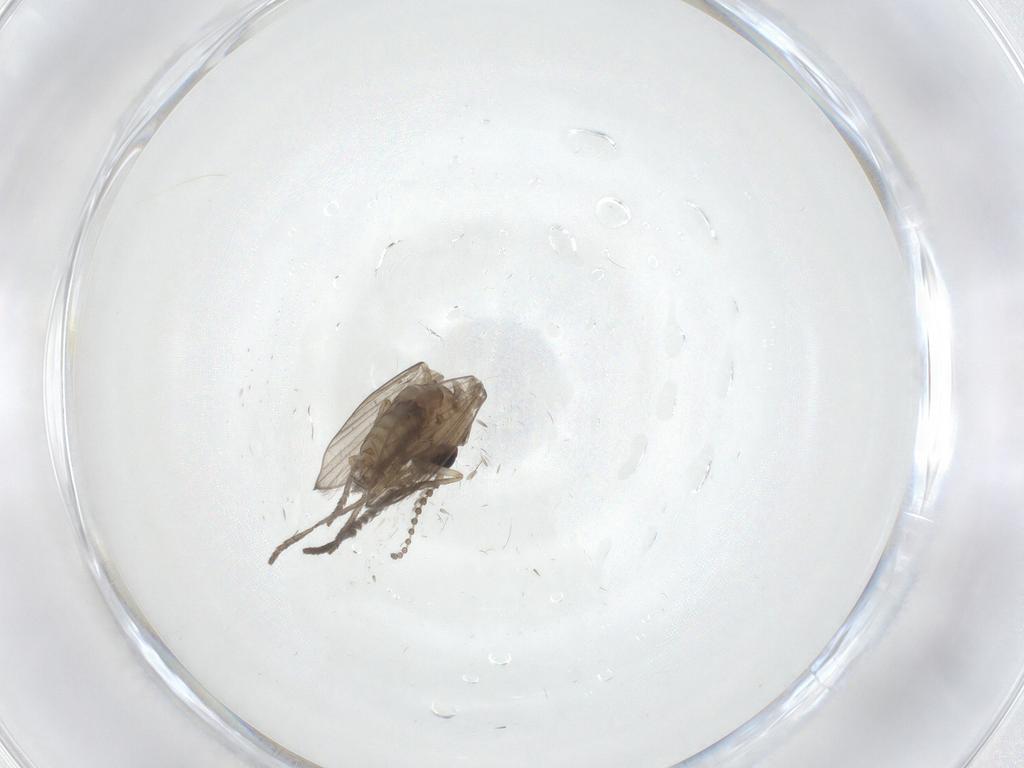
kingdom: Animalia
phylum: Arthropoda
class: Insecta
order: Diptera
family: Psychodidae
